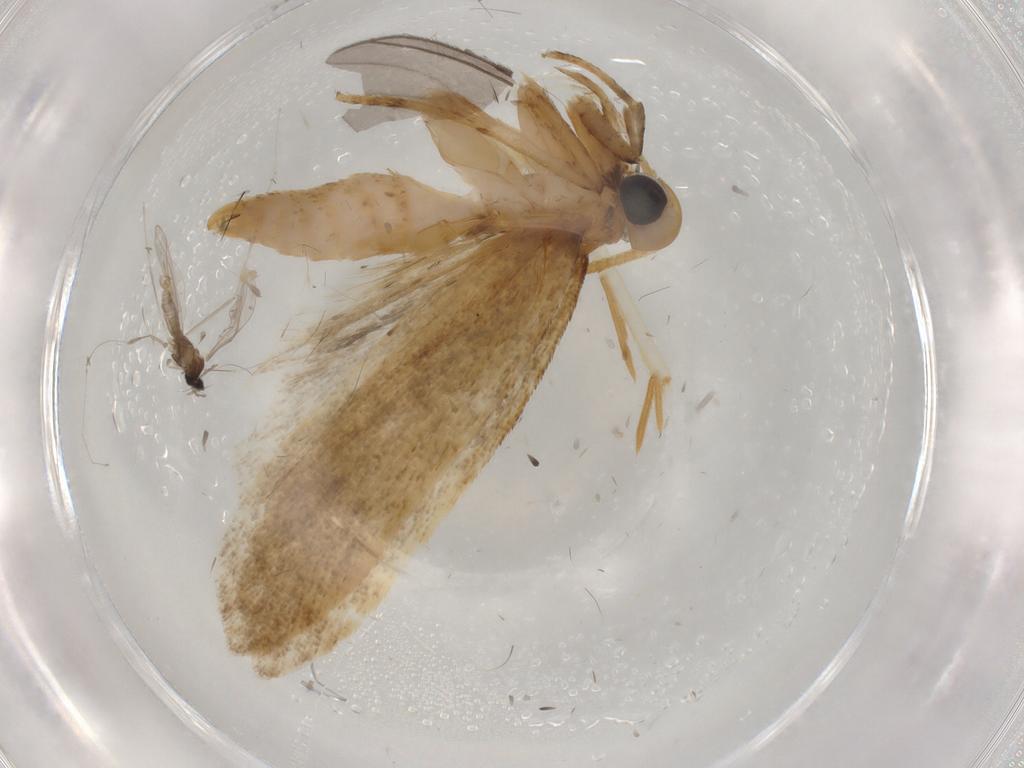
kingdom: Animalia
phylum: Arthropoda
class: Insecta
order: Lepidoptera
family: Autostichidae
